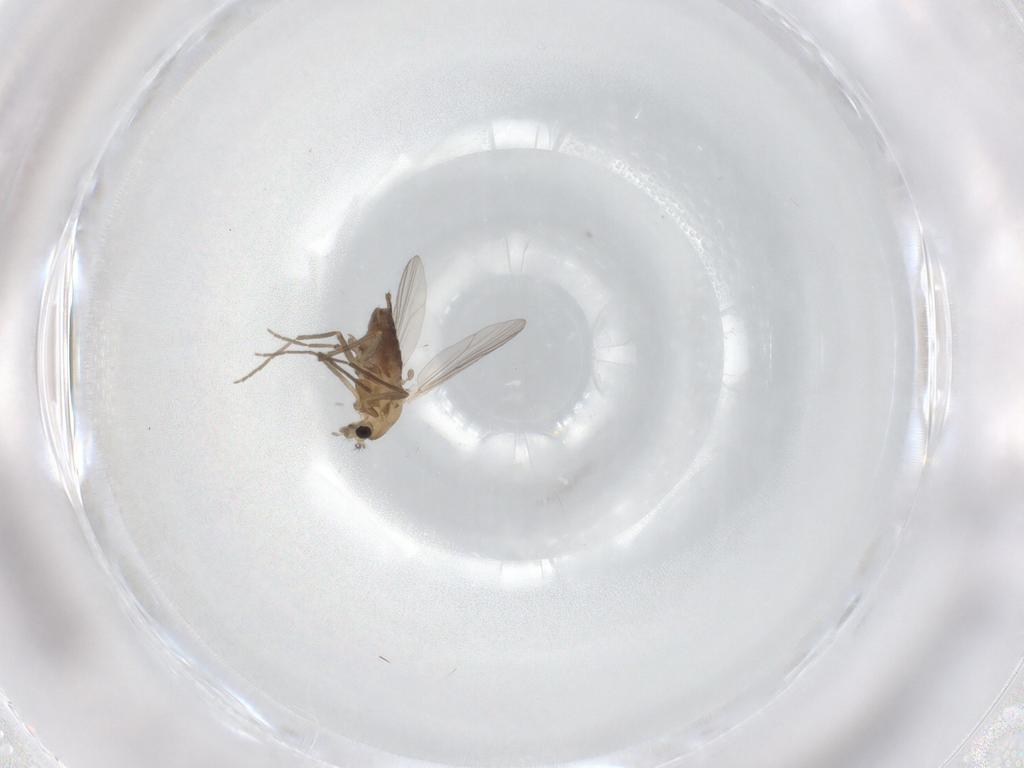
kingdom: Animalia
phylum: Arthropoda
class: Insecta
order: Diptera
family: Chironomidae
